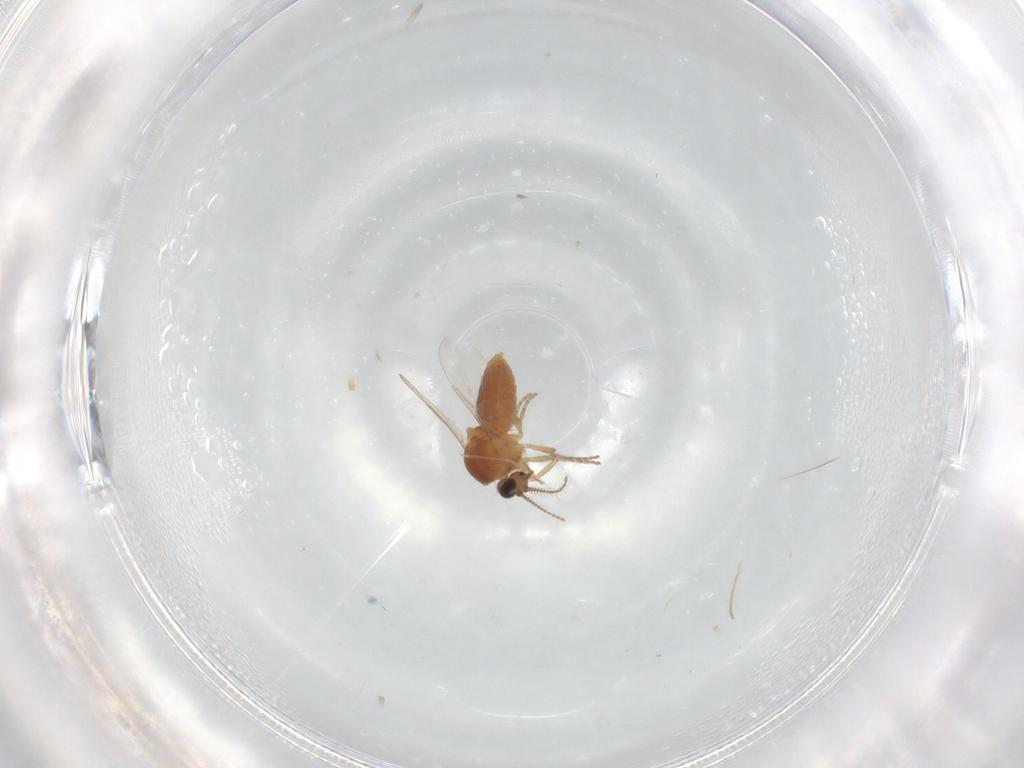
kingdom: Animalia
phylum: Arthropoda
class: Insecta
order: Diptera
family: Ceratopogonidae
